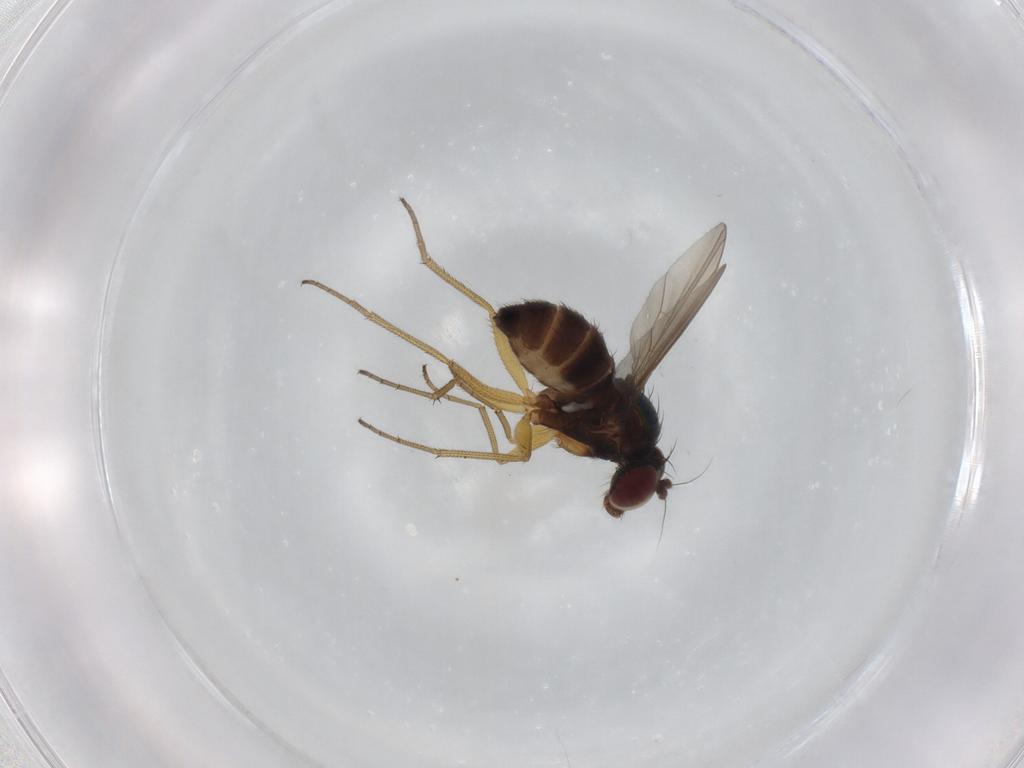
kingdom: Animalia
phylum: Arthropoda
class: Insecta
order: Diptera
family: Dolichopodidae
